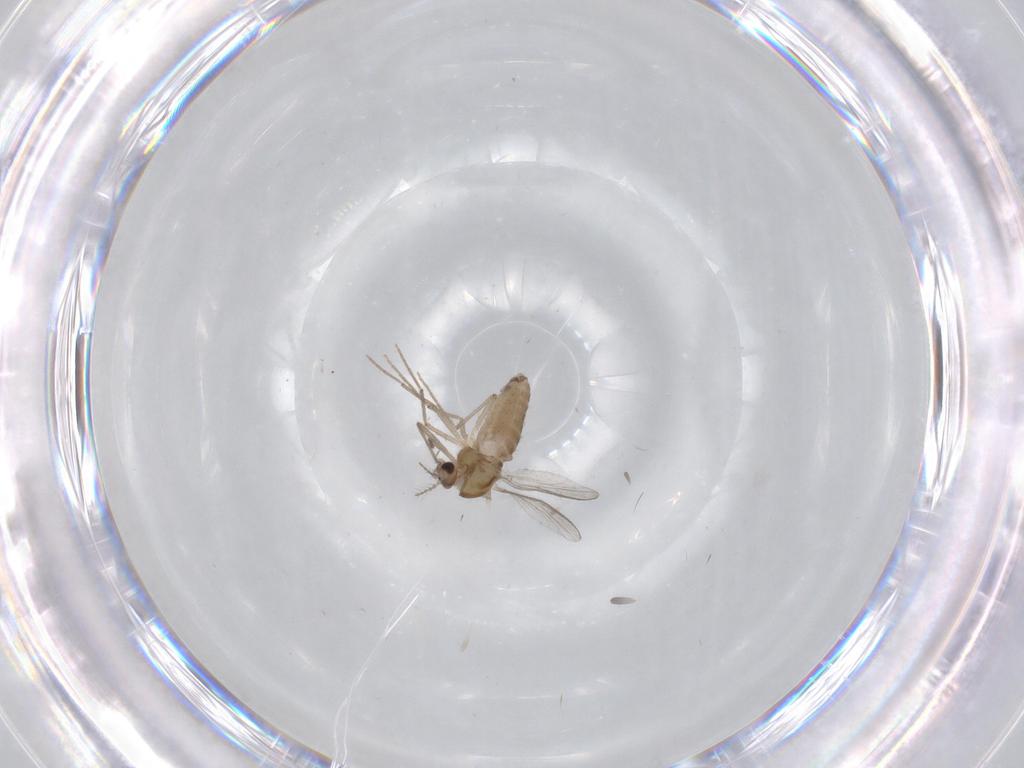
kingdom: Animalia
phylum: Arthropoda
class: Insecta
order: Diptera
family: Chironomidae
